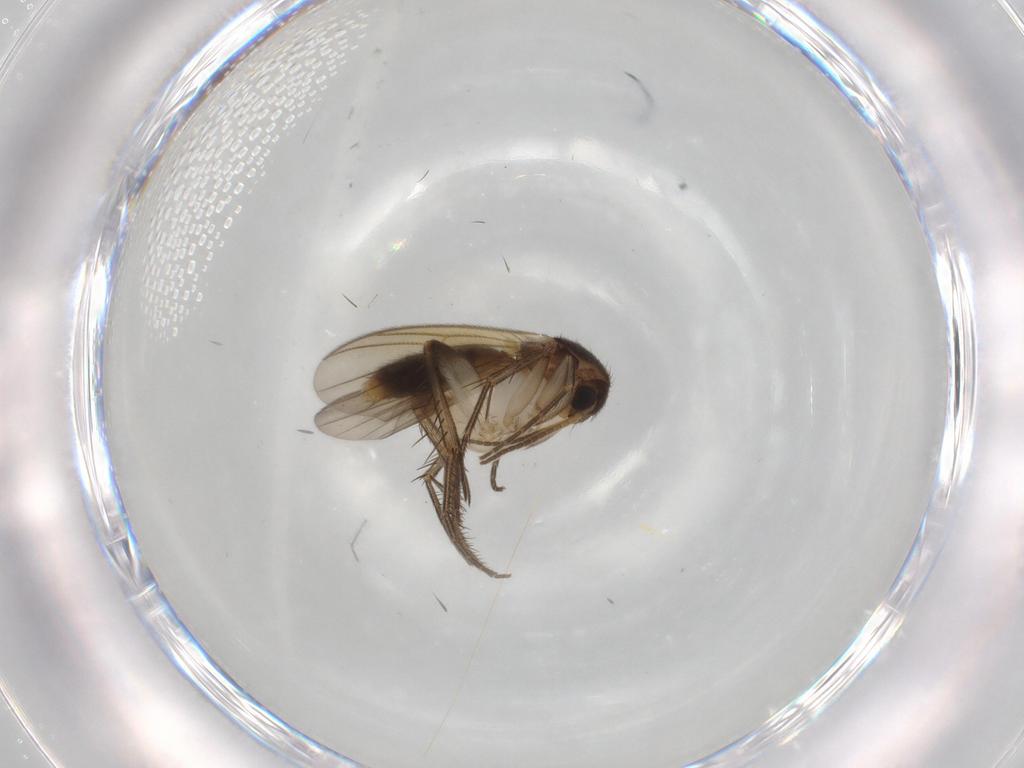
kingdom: Animalia
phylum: Arthropoda
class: Insecta
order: Diptera
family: Mycetophilidae
